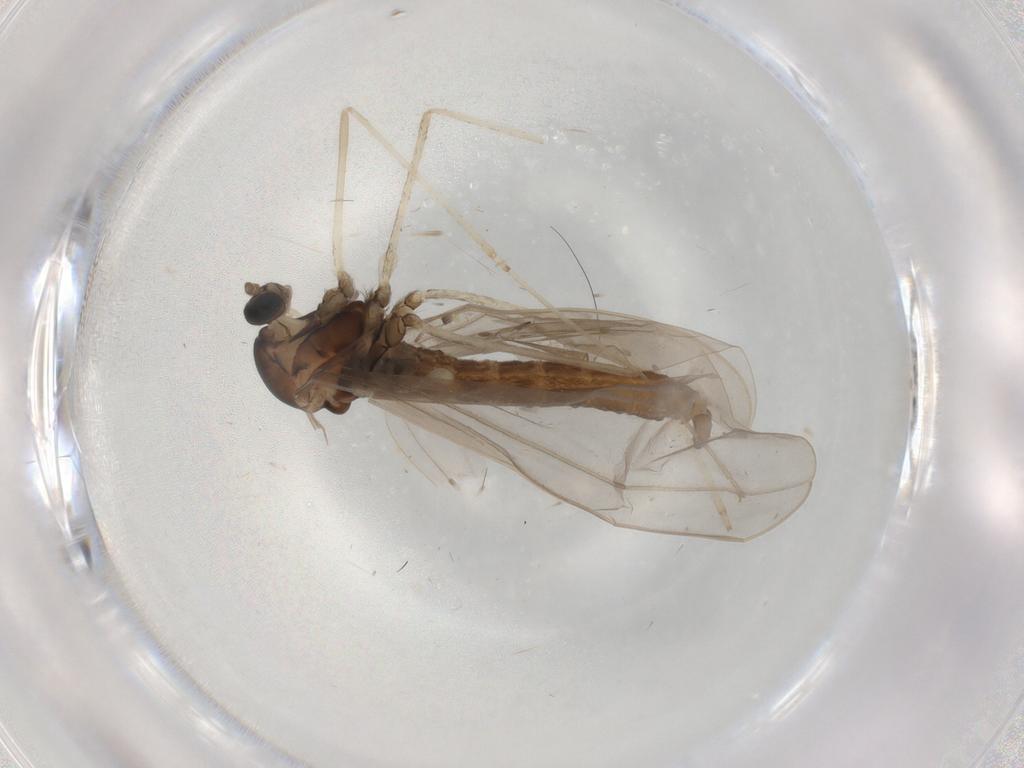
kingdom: Animalia
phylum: Arthropoda
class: Insecta
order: Diptera
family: Cecidomyiidae
